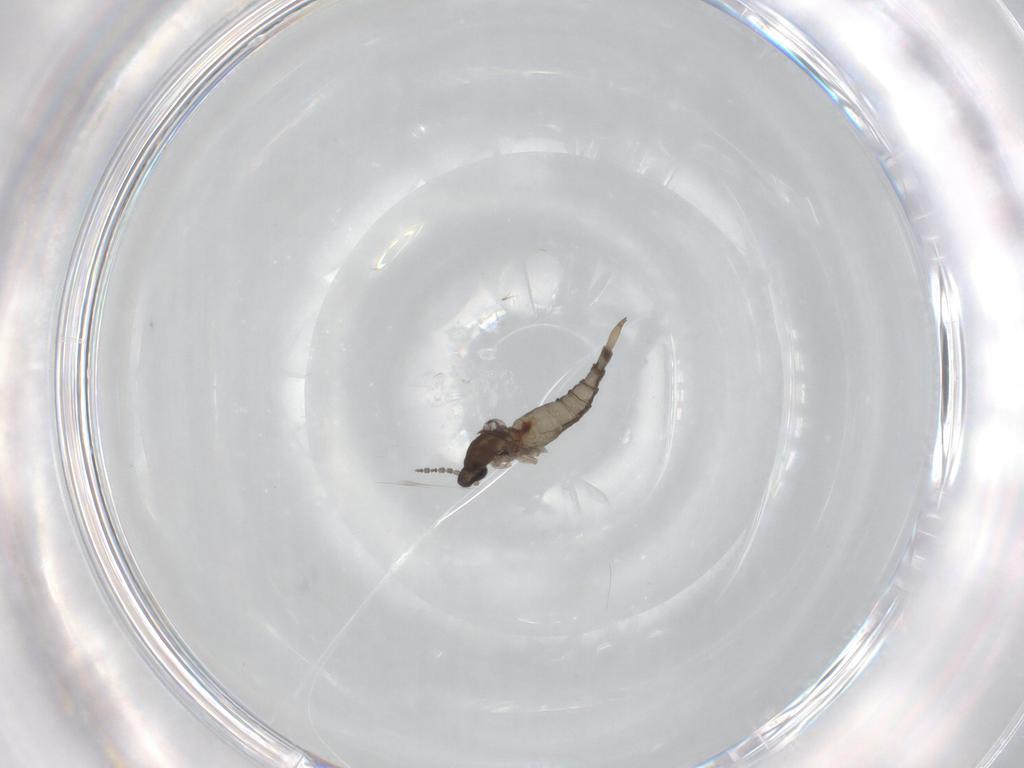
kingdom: Animalia
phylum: Arthropoda
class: Insecta
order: Diptera
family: Cecidomyiidae
